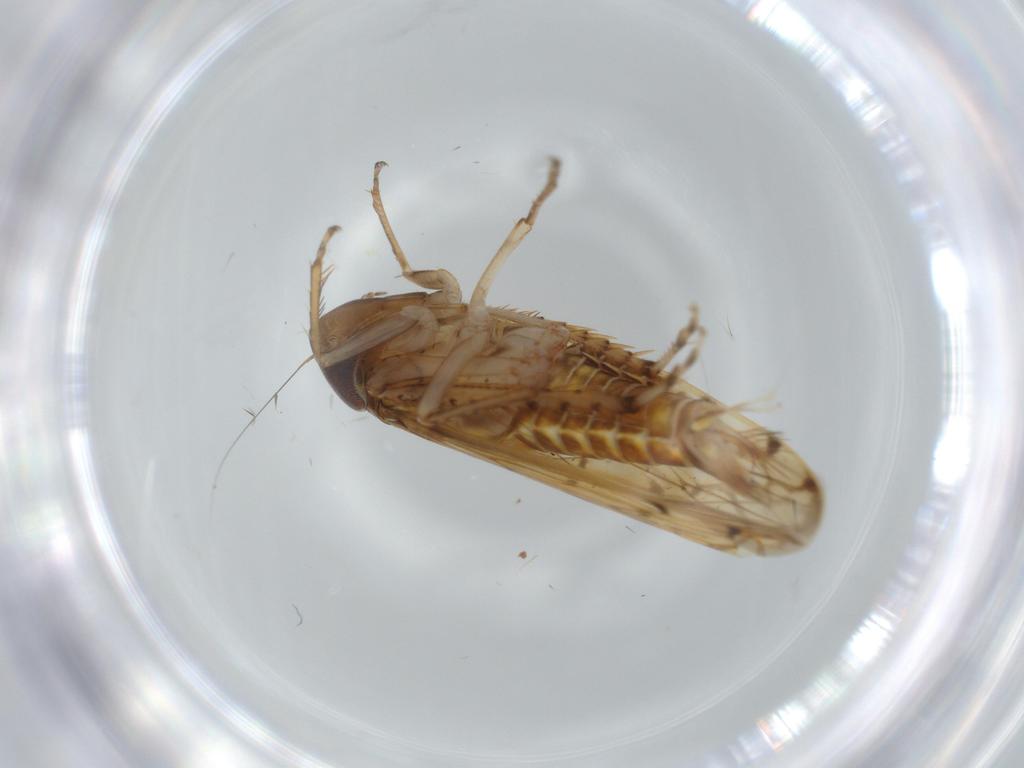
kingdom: Animalia
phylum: Arthropoda
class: Insecta
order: Hemiptera
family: Cicadellidae
